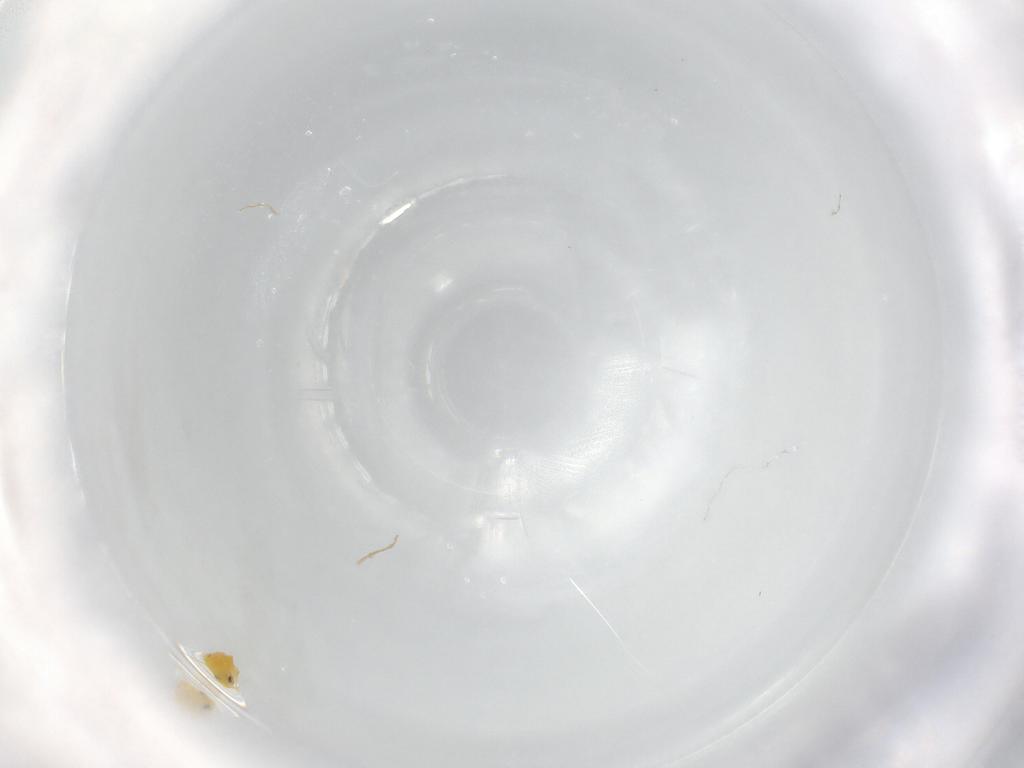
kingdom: Animalia
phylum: Arthropoda
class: Insecta
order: Hemiptera
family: Aleyrodidae
